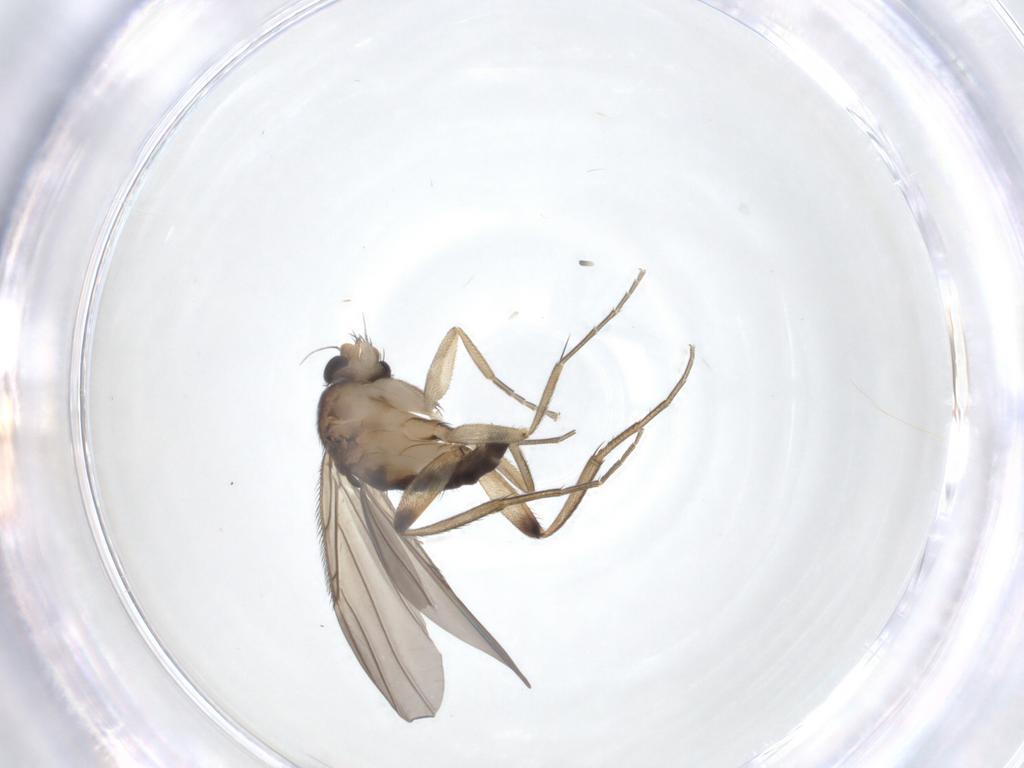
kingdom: Animalia
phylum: Arthropoda
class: Insecta
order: Diptera
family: Phoridae
